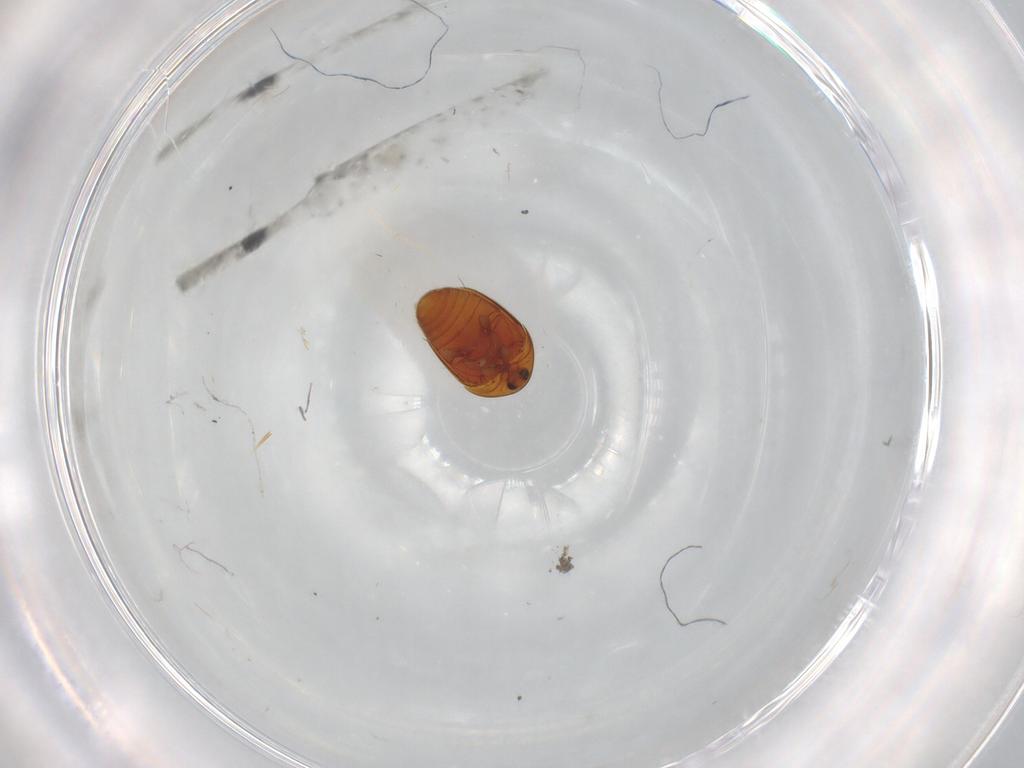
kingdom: Animalia
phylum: Arthropoda
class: Insecta
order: Coleoptera
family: Lampyridae
